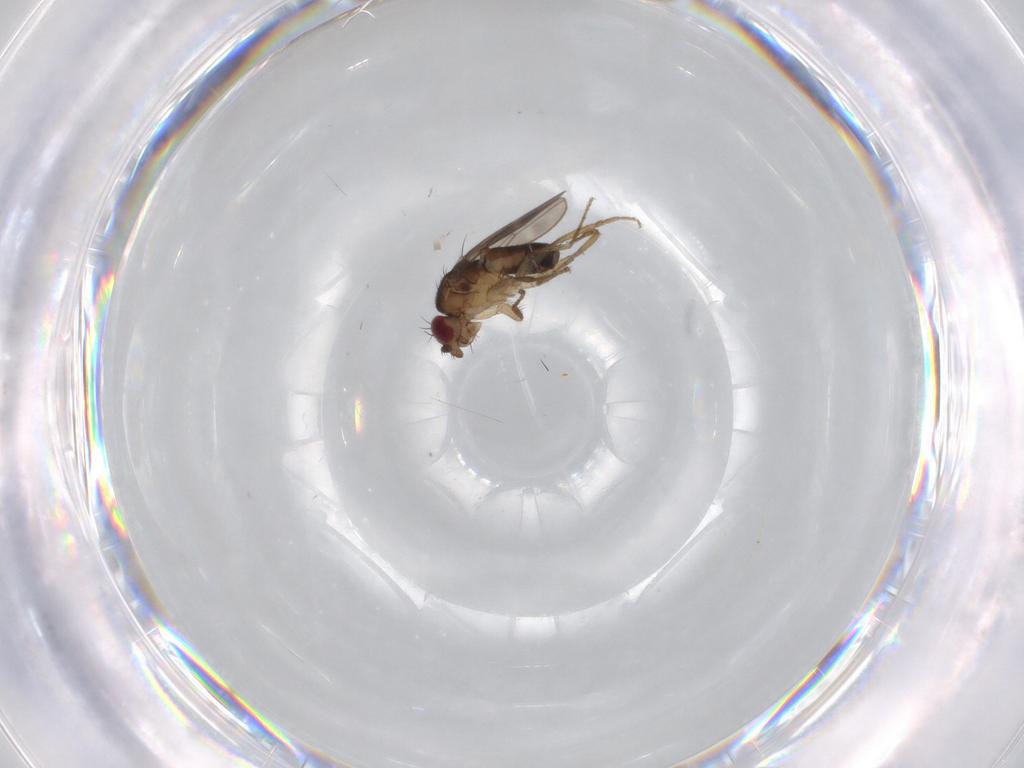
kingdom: Animalia
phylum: Arthropoda
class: Insecta
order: Diptera
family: Sphaeroceridae
